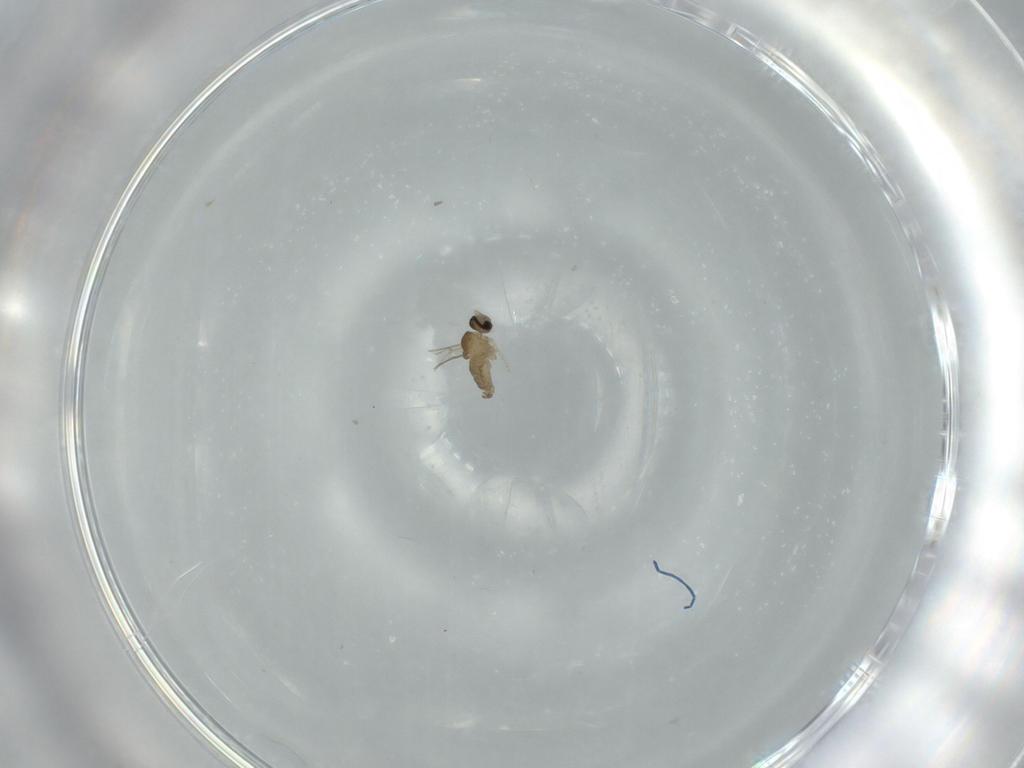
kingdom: Animalia
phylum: Arthropoda
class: Insecta
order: Diptera
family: Cecidomyiidae
